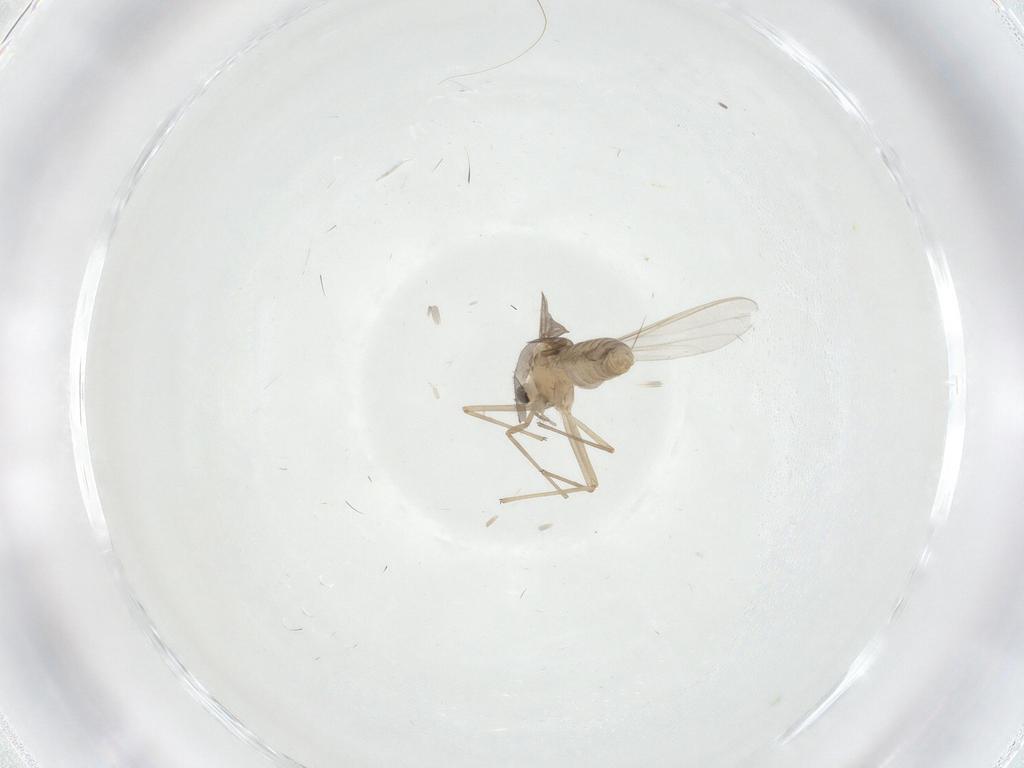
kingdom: Animalia
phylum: Arthropoda
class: Insecta
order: Diptera
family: Chironomidae
